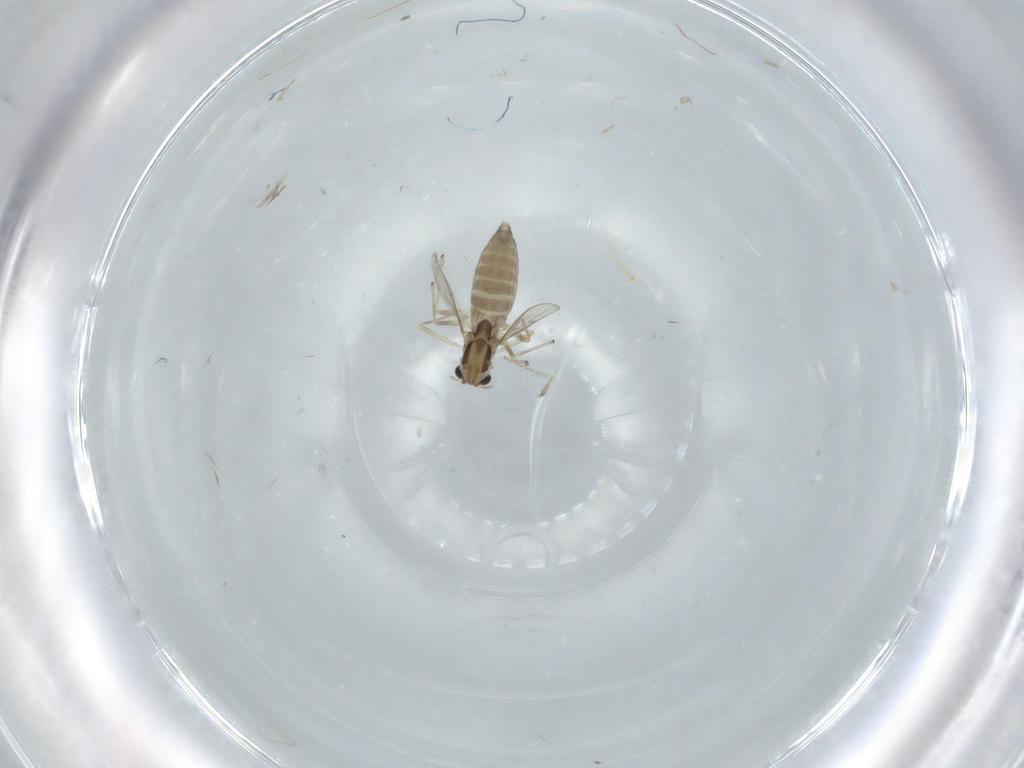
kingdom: Animalia
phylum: Arthropoda
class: Insecta
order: Diptera
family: Chironomidae
